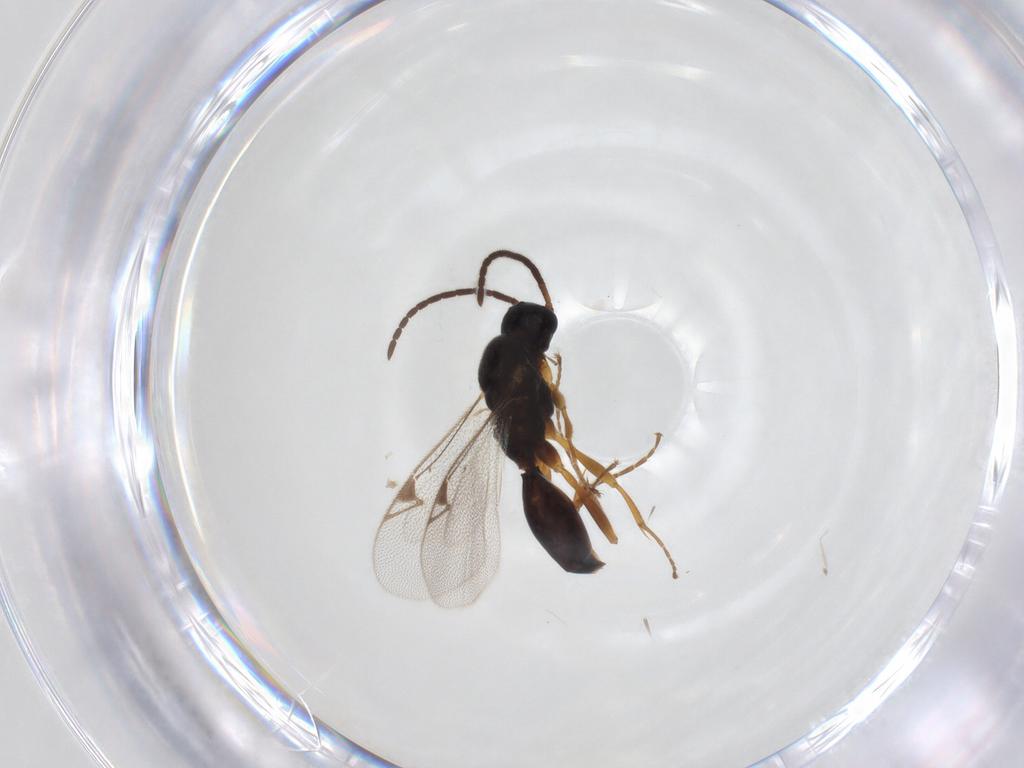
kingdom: Animalia
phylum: Arthropoda
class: Insecta
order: Hymenoptera
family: Proctotrupidae
